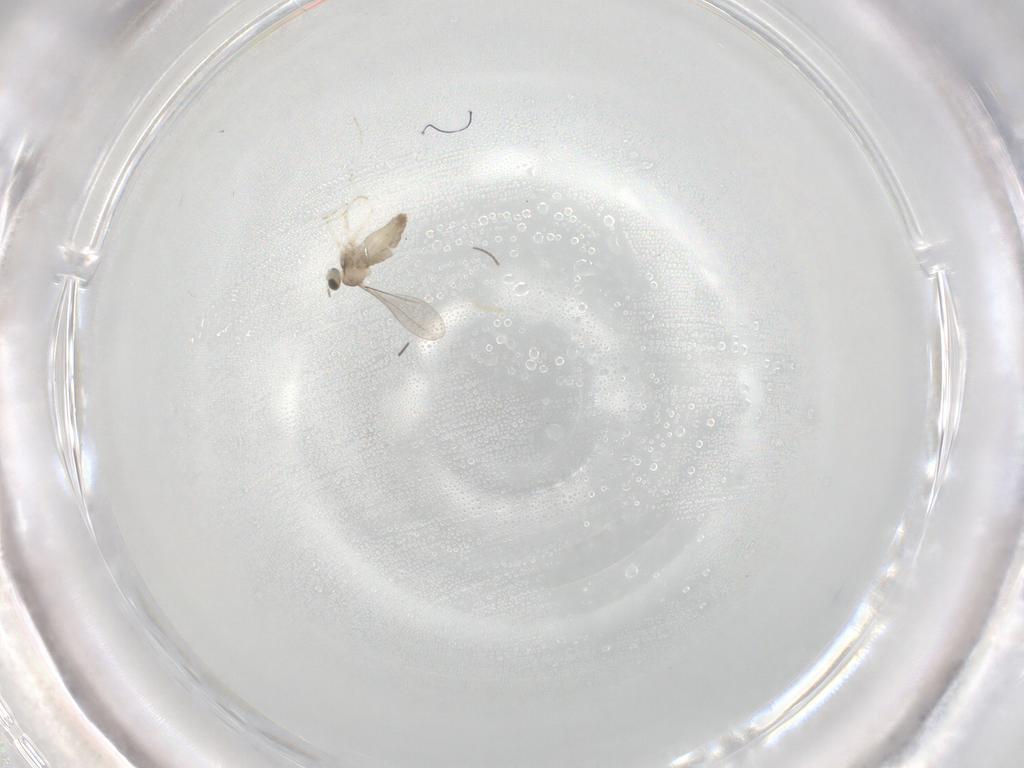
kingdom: Animalia
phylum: Arthropoda
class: Insecta
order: Diptera
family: Cecidomyiidae
